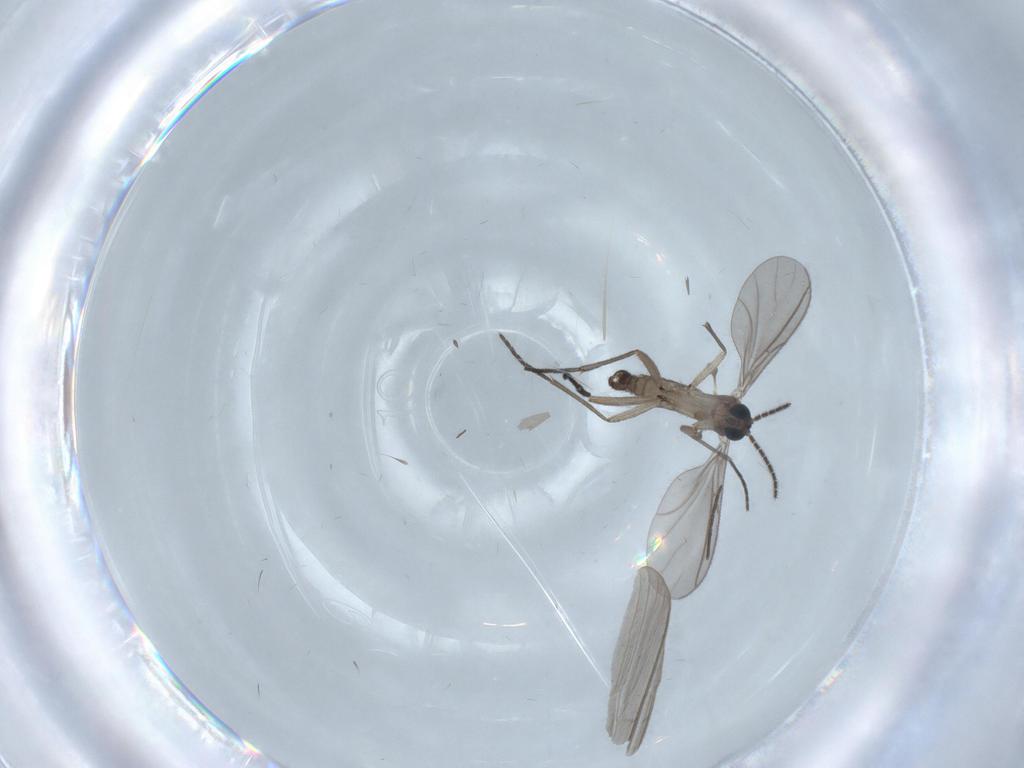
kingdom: Animalia
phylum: Arthropoda
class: Insecta
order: Diptera
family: Sciaridae
